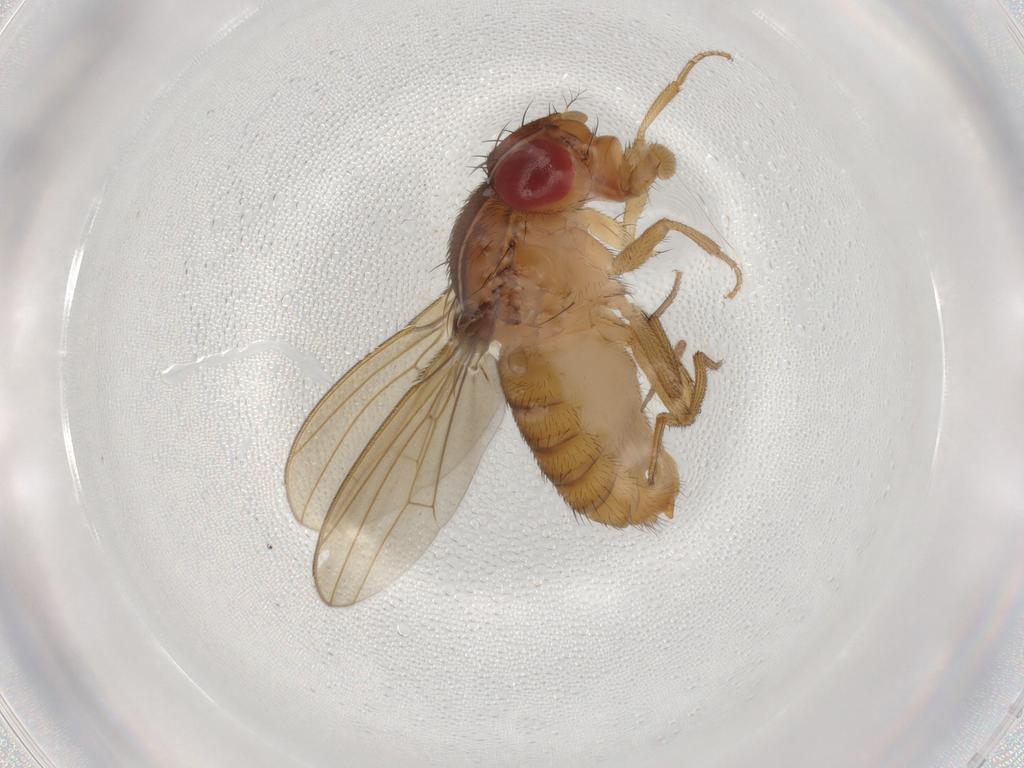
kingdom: Animalia
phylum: Arthropoda
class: Insecta
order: Diptera
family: Drosophilidae
